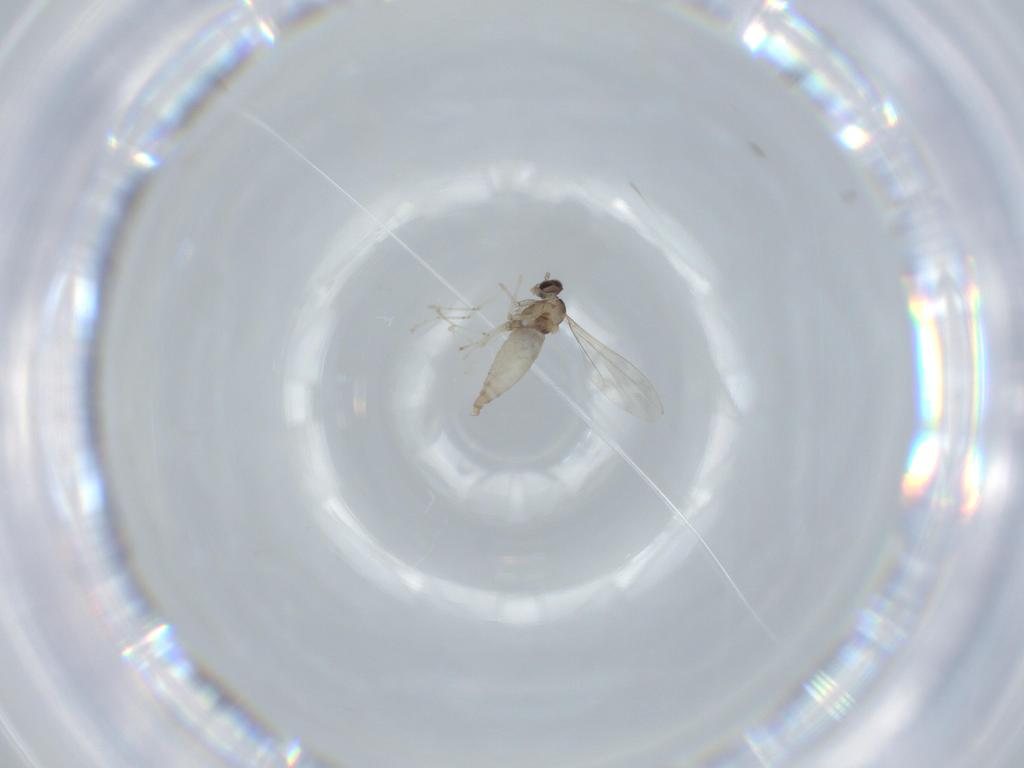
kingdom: Animalia
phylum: Arthropoda
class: Insecta
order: Diptera
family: Cecidomyiidae
